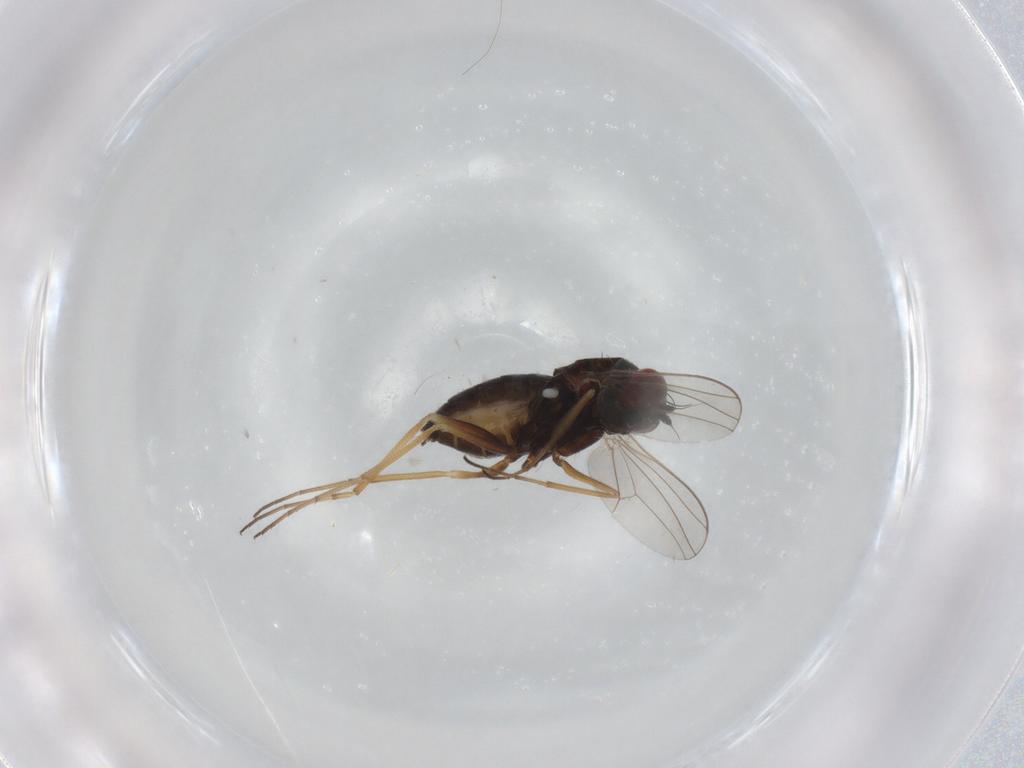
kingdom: Animalia
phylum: Arthropoda
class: Insecta
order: Diptera
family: Dolichopodidae
